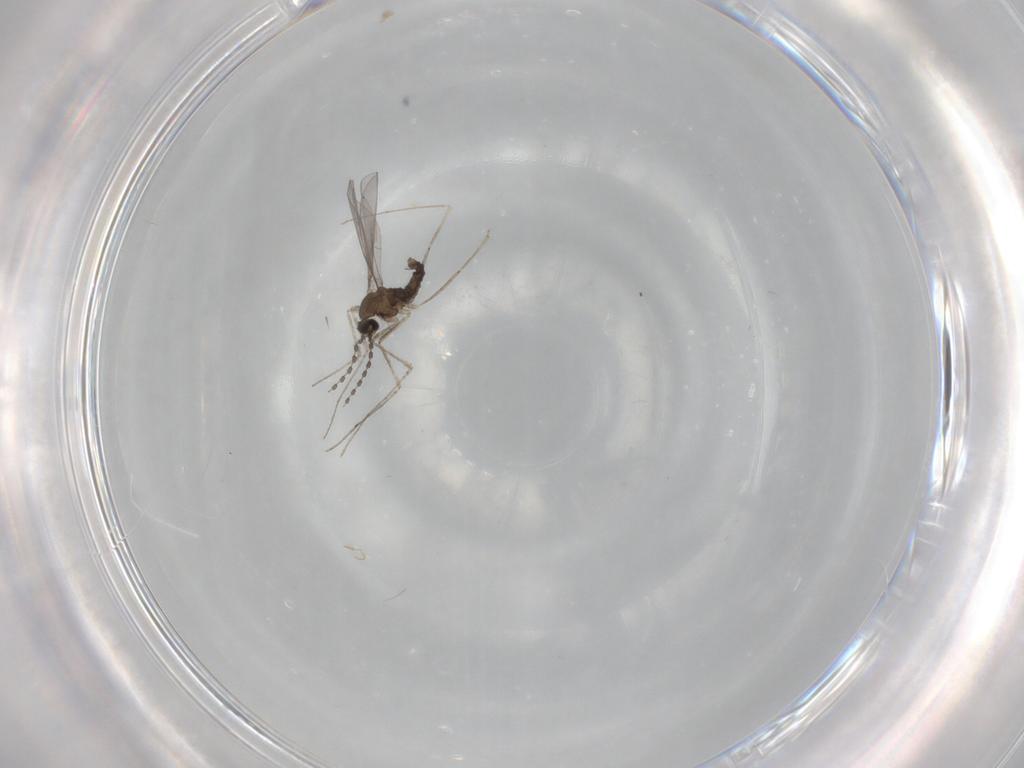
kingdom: Animalia
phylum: Arthropoda
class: Insecta
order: Diptera
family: Cecidomyiidae
